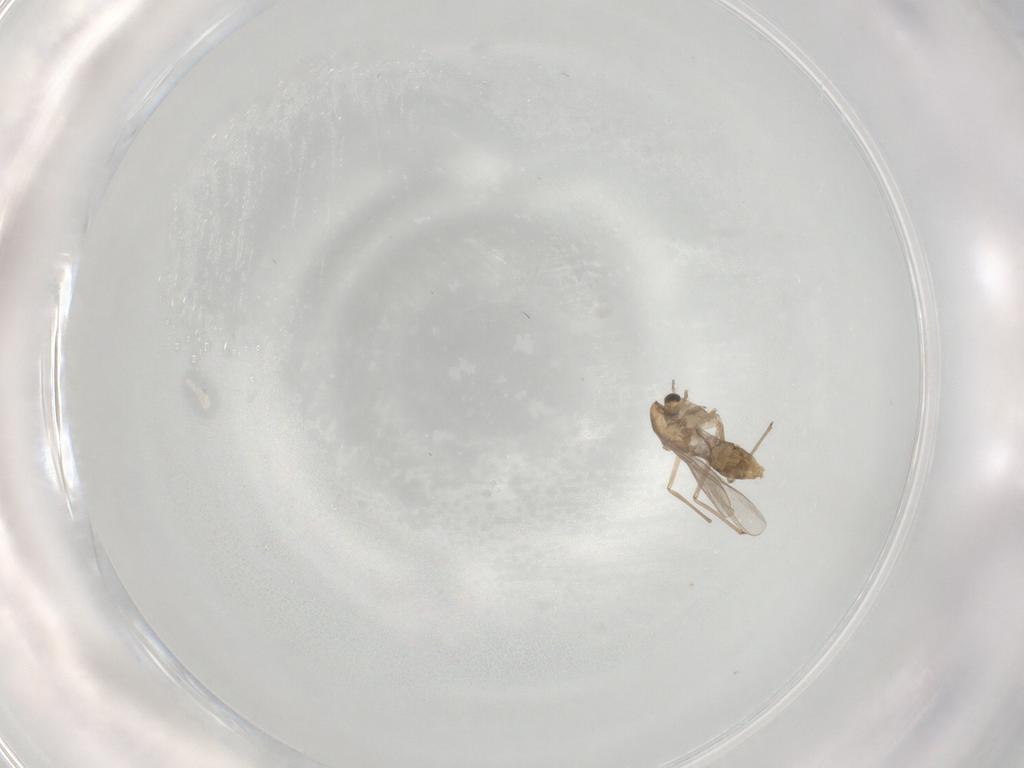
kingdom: Animalia
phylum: Arthropoda
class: Insecta
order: Diptera
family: Chironomidae
